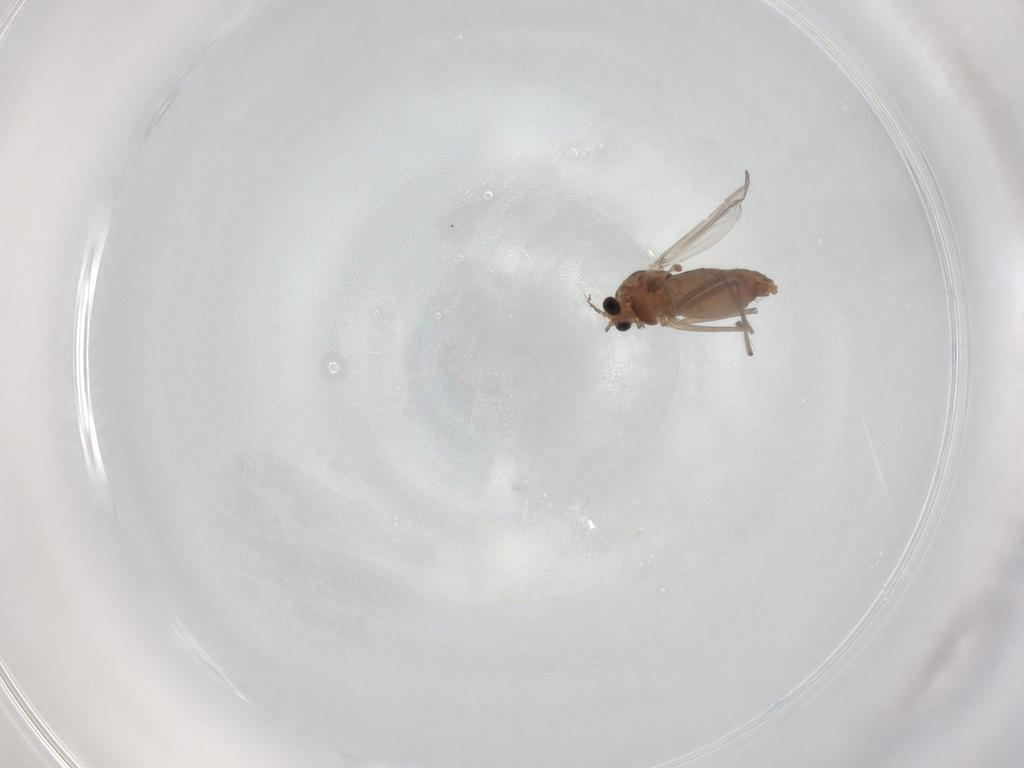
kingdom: Animalia
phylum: Arthropoda
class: Insecta
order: Diptera
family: Chironomidae
